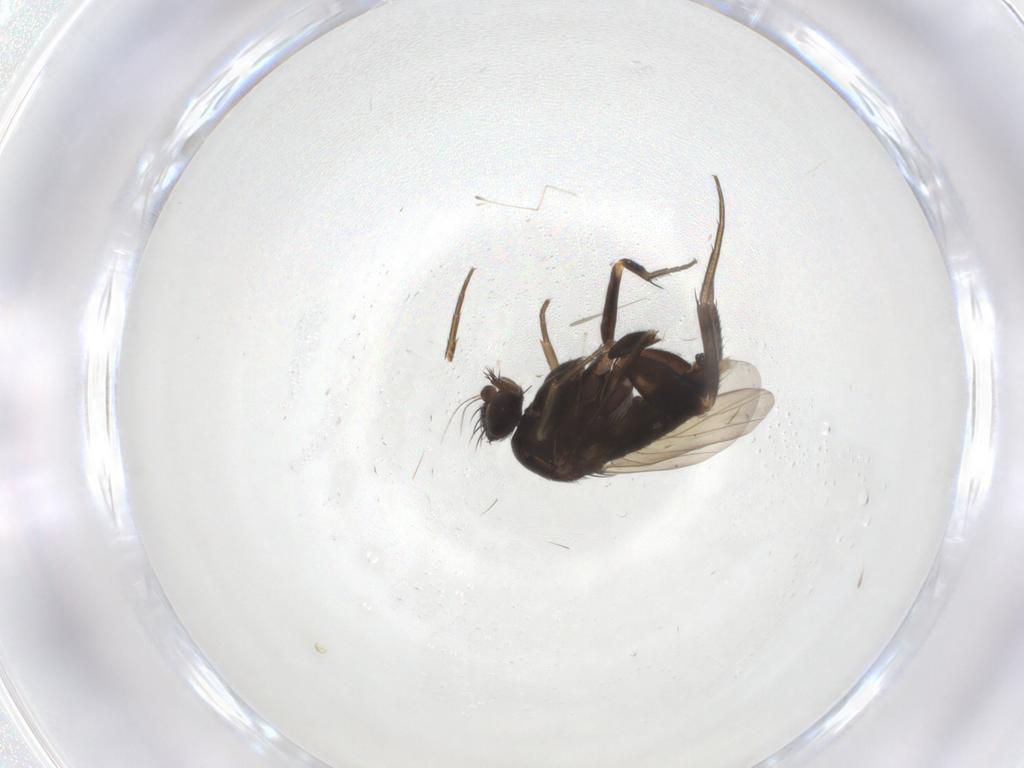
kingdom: Animalia
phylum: Arthropoda
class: Insecta
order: Diptera
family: Phoridae
